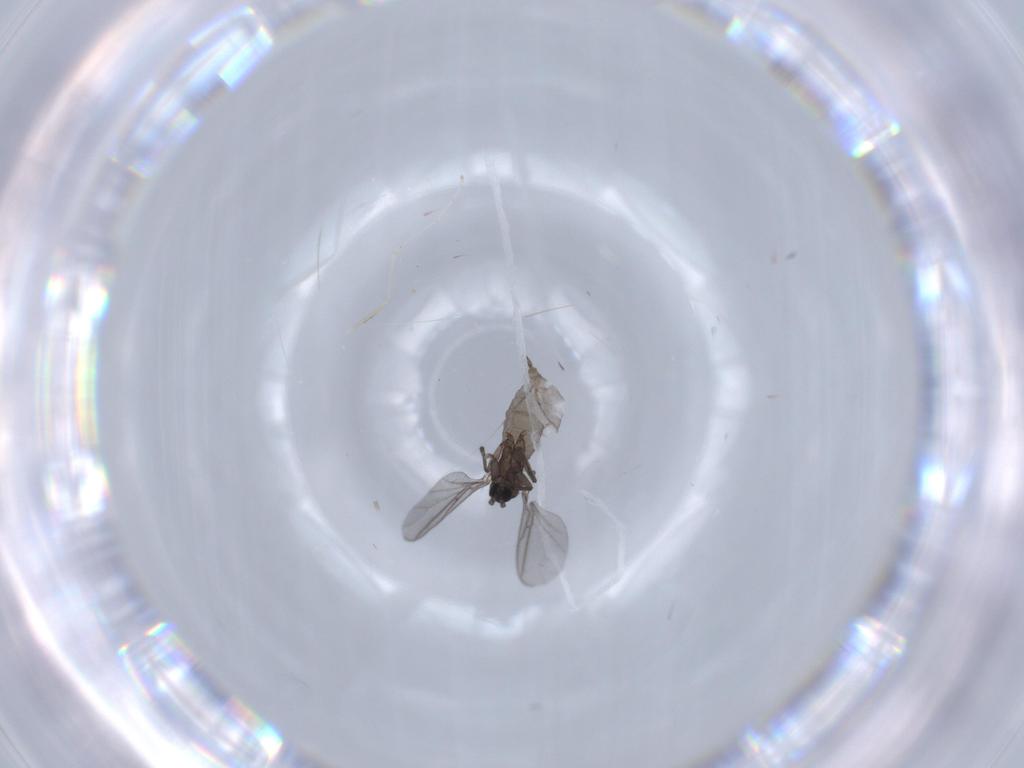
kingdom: Animalia
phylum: Arthropoda
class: Insecta
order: Diptera
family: Sciaridae
